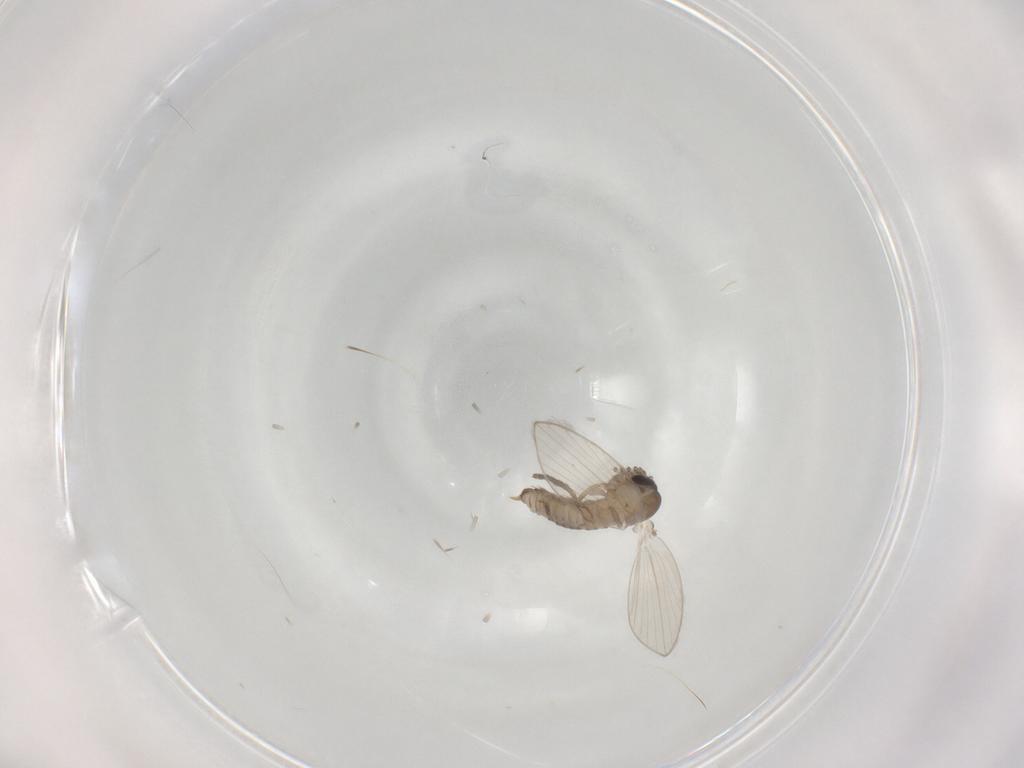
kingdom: Animalia
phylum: Arthropoda
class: Insecta
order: Diptera
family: Psychodidae
